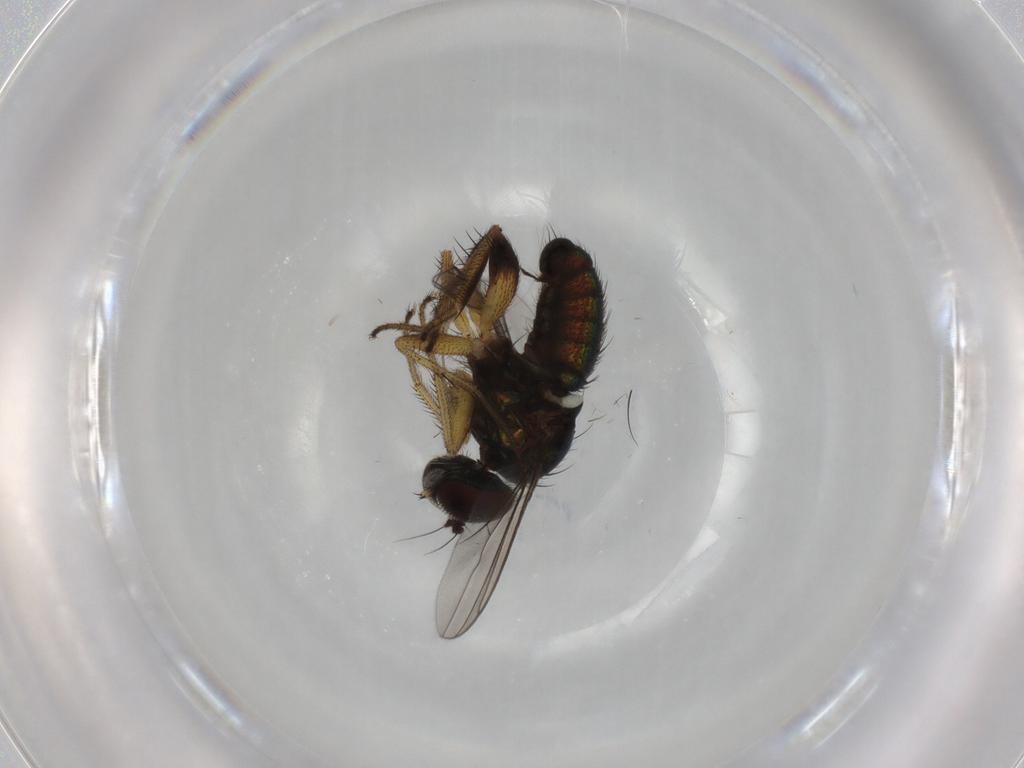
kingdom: Animalia
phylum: Arthropoda
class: Insecta
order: Diptera
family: Dolichopodidae
